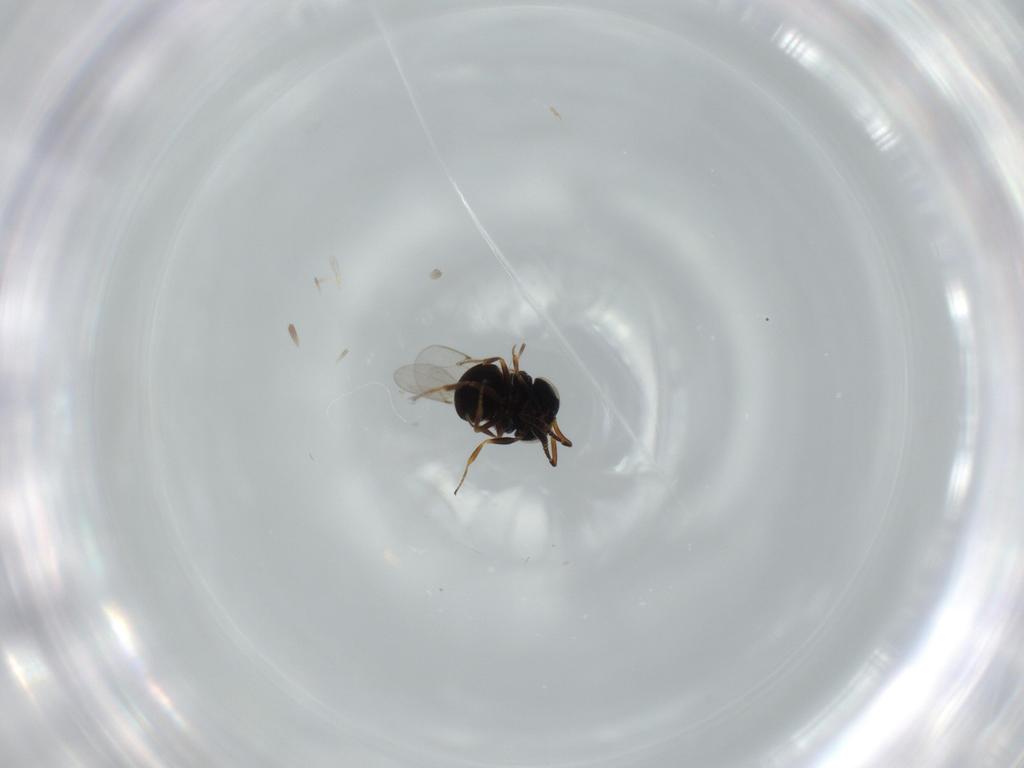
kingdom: Animalia
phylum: Arthropoda
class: Insecta
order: Hymenoptera
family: Scelionidae
